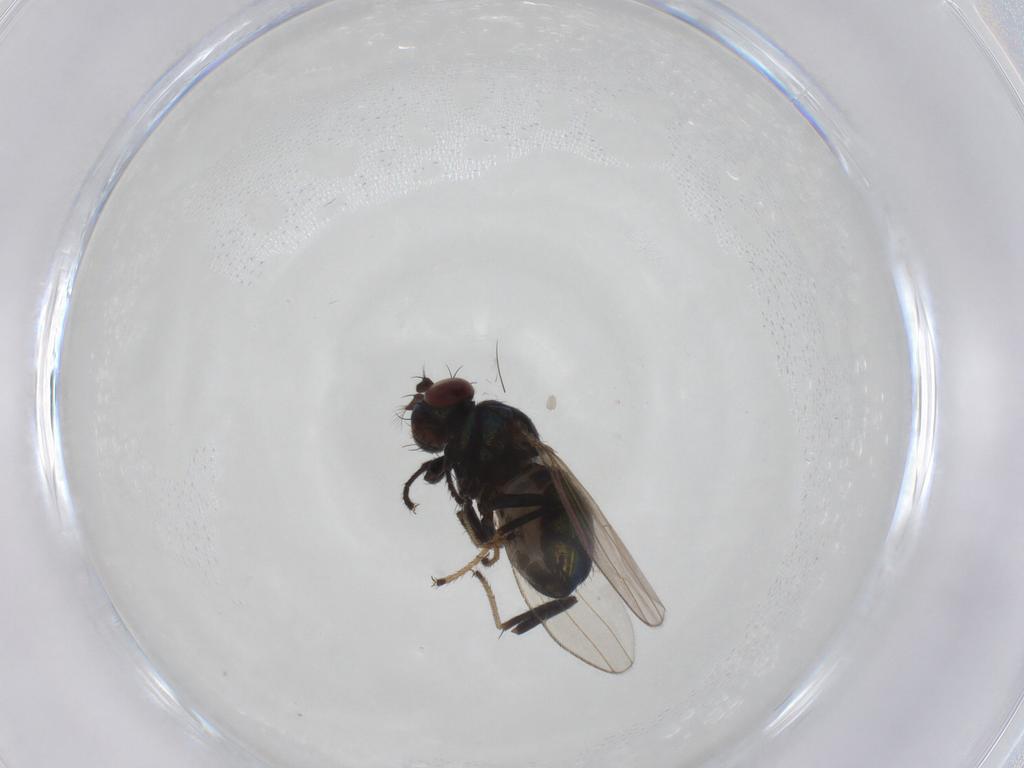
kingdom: Animalia
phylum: Arthropoda
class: Insecta
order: Diptera
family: Ephydridae
